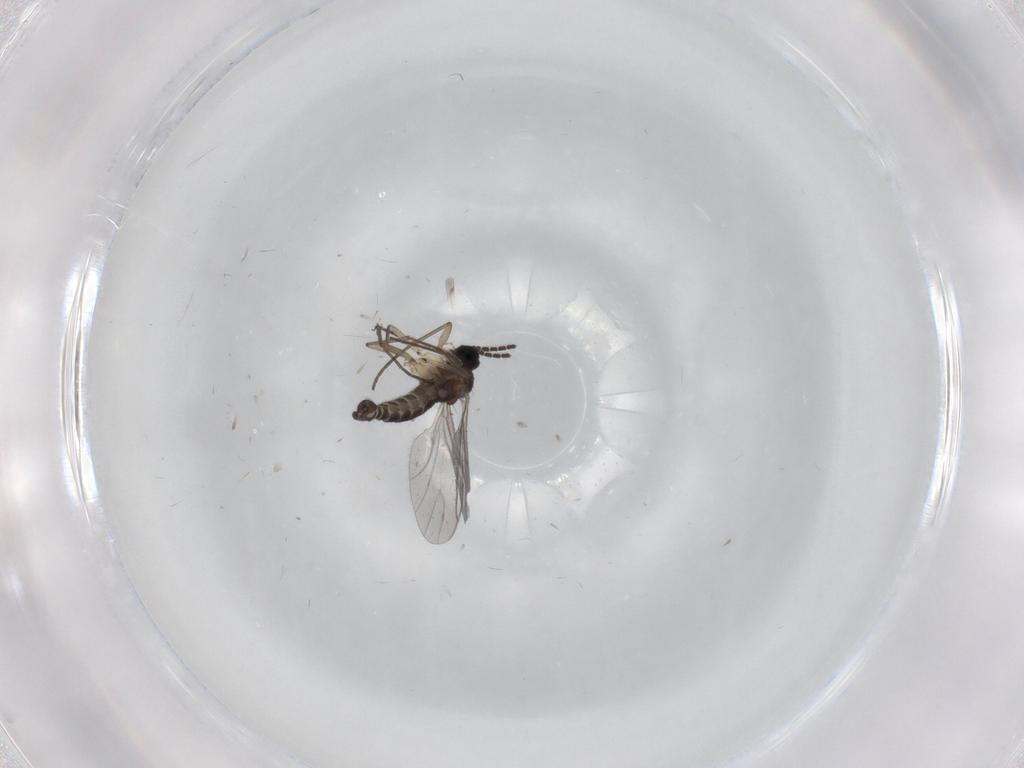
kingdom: Animalia
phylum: Arthropoda
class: Insecta
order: Diptera
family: Sciaridae
